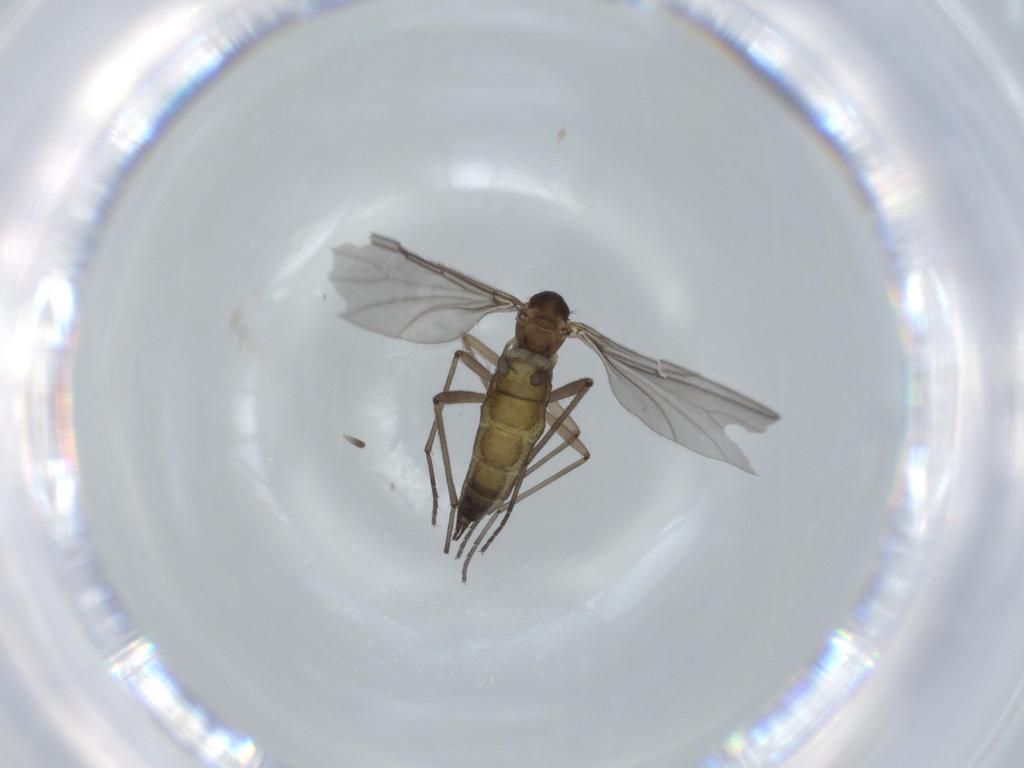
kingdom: Animalia
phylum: Arthropoda
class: Insecta
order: Diptera
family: Sciaridae
